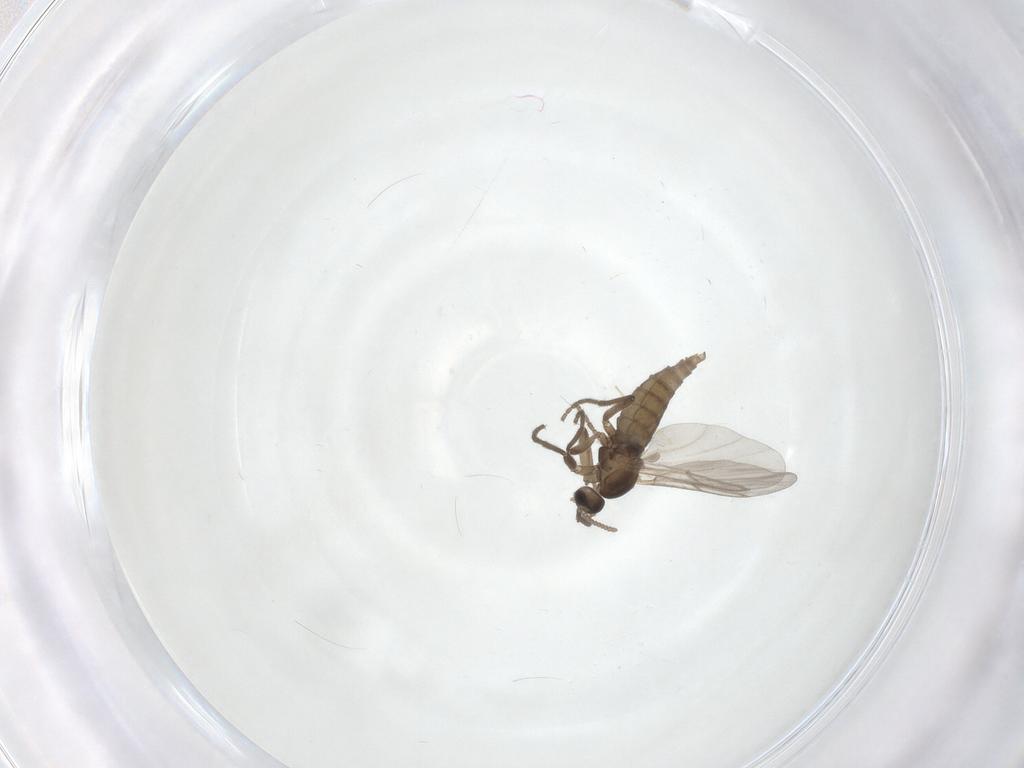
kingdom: Animalia
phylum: Arthropoda
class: Insecta
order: Diptera
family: Cecidomyiidae
